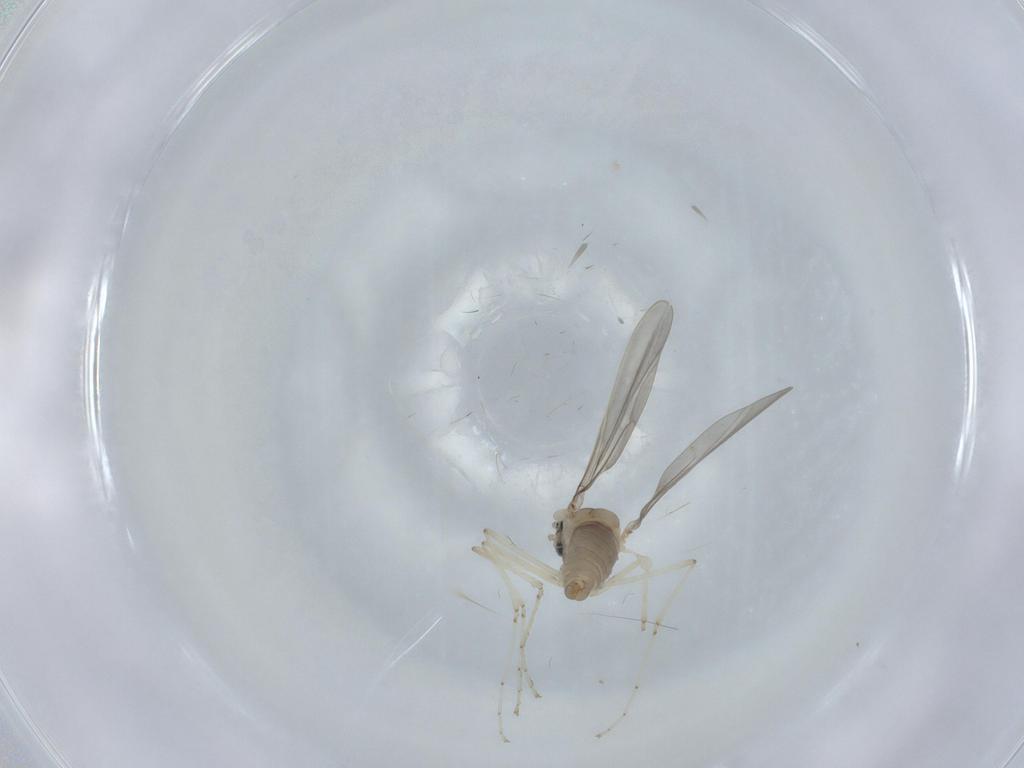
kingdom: Animalia
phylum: Arthropoda
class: Insecta
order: Diptera
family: Cecidomyiidae
